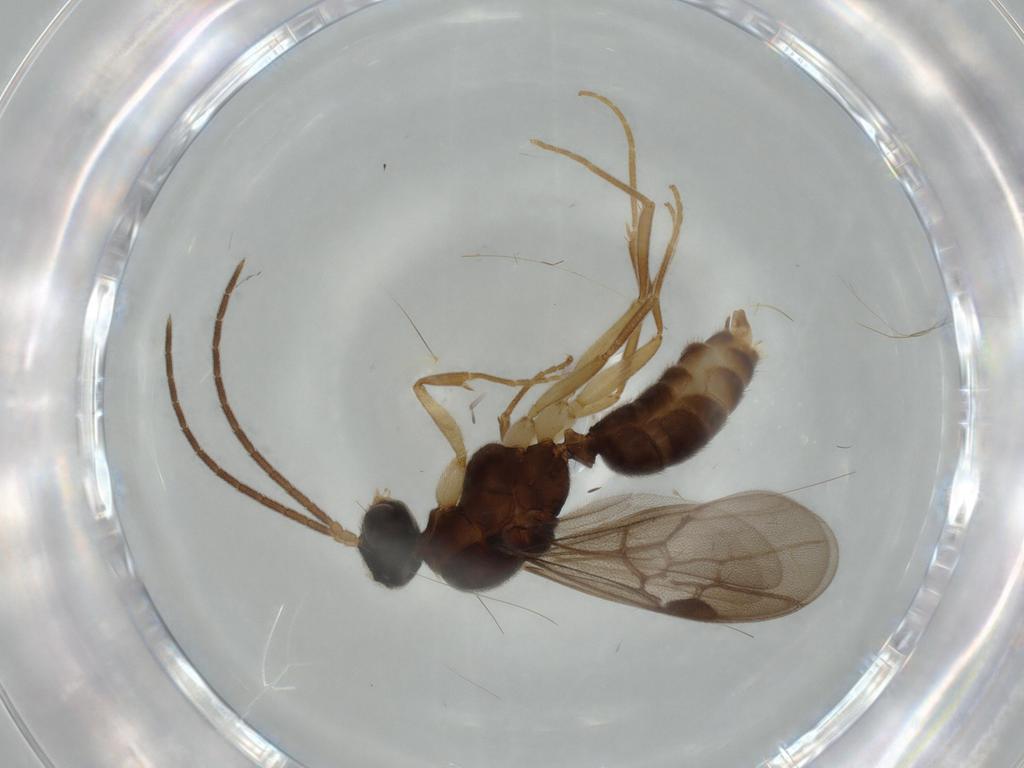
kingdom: Animalia
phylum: Arthropoda
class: Insecta
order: Hymenoptera
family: Diapriidae
